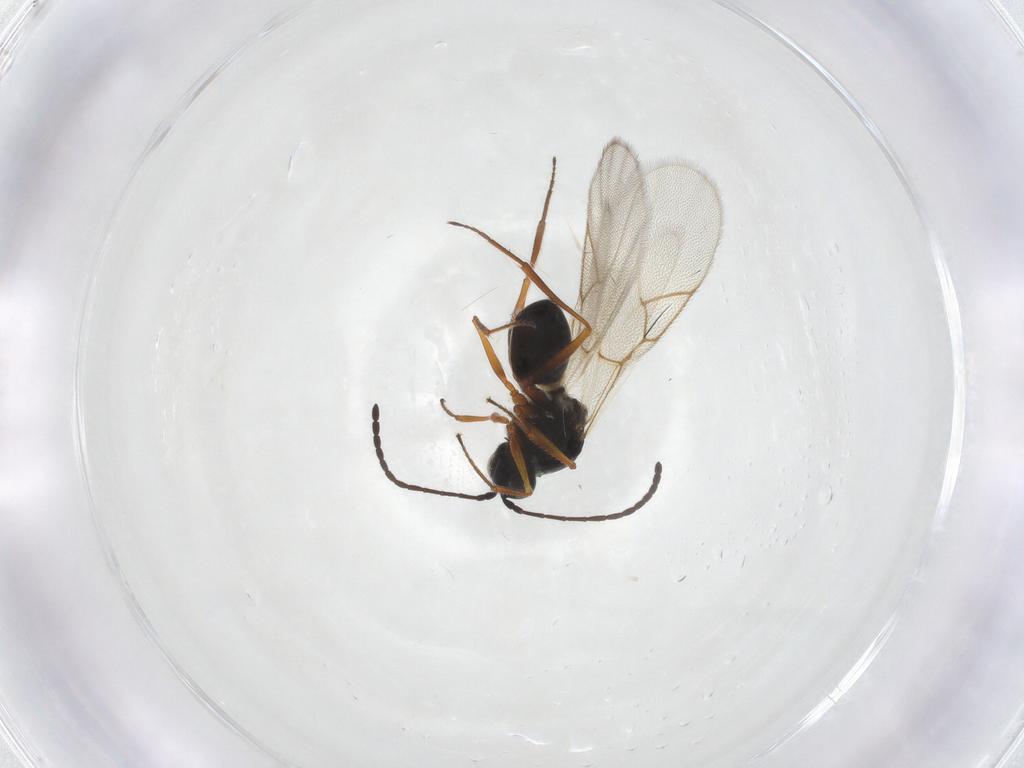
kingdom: Animalia
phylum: Arthropoda
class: Insecta
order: Hymenoptera
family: Figitidae
